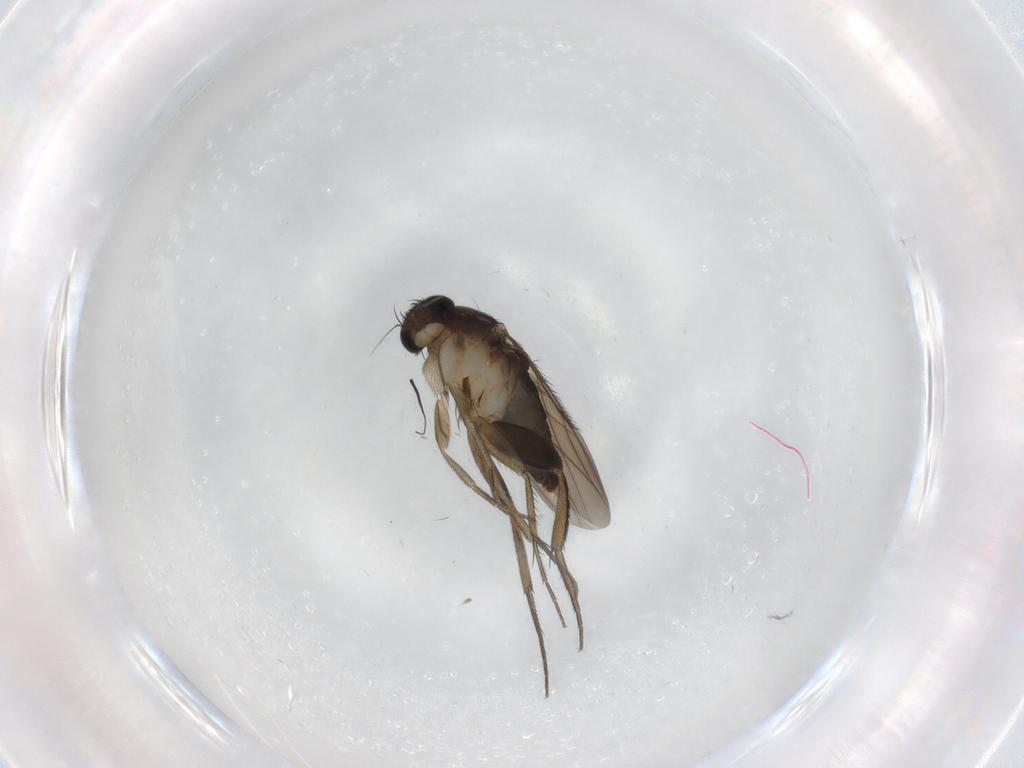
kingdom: Animalia
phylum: Arthropoda
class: Insecta
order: Diptera
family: Phoridae
